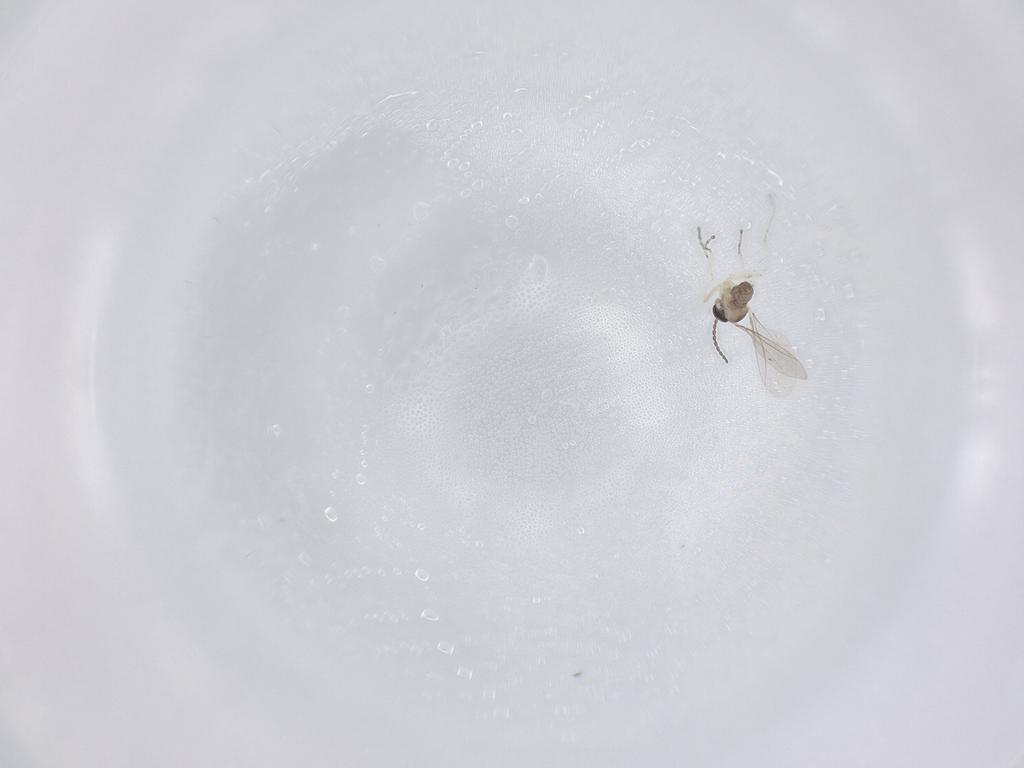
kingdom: Animalia
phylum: Arthropoda
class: Insecta
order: Diptera
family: Cecidomyiidae
